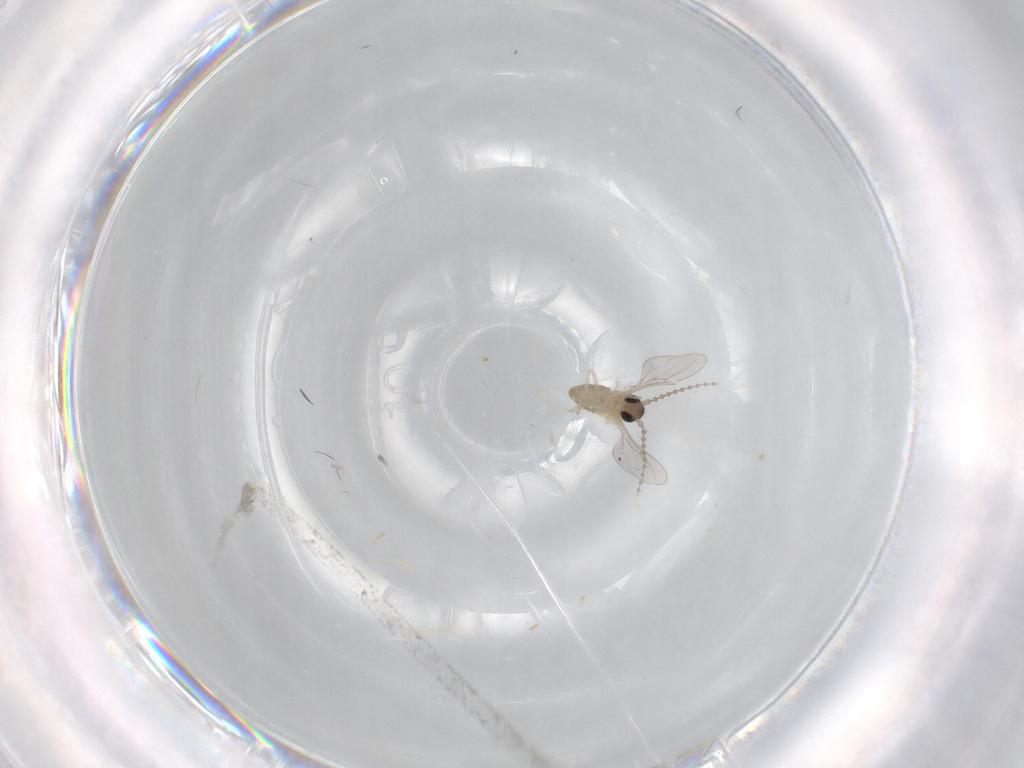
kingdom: Animalia
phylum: Arthropoda
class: Insecta
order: Diptera
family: Cecidomyiidae
